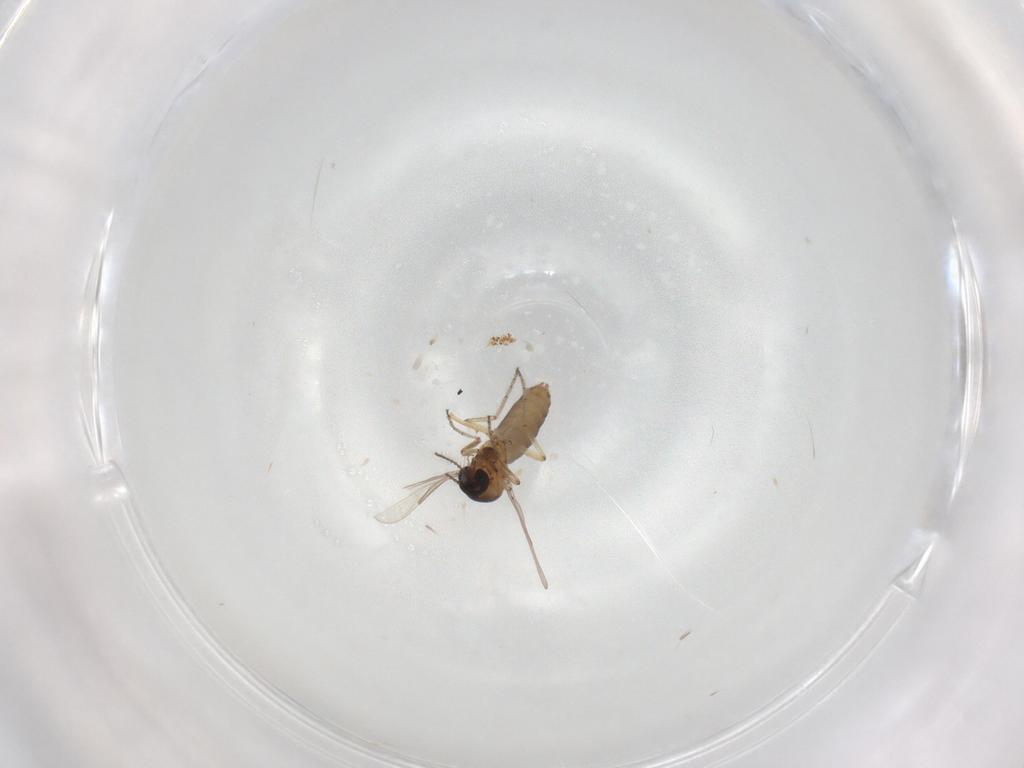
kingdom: Animalia
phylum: Arthropoda
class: Insecta
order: Diptera
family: Ceratopogonidae
